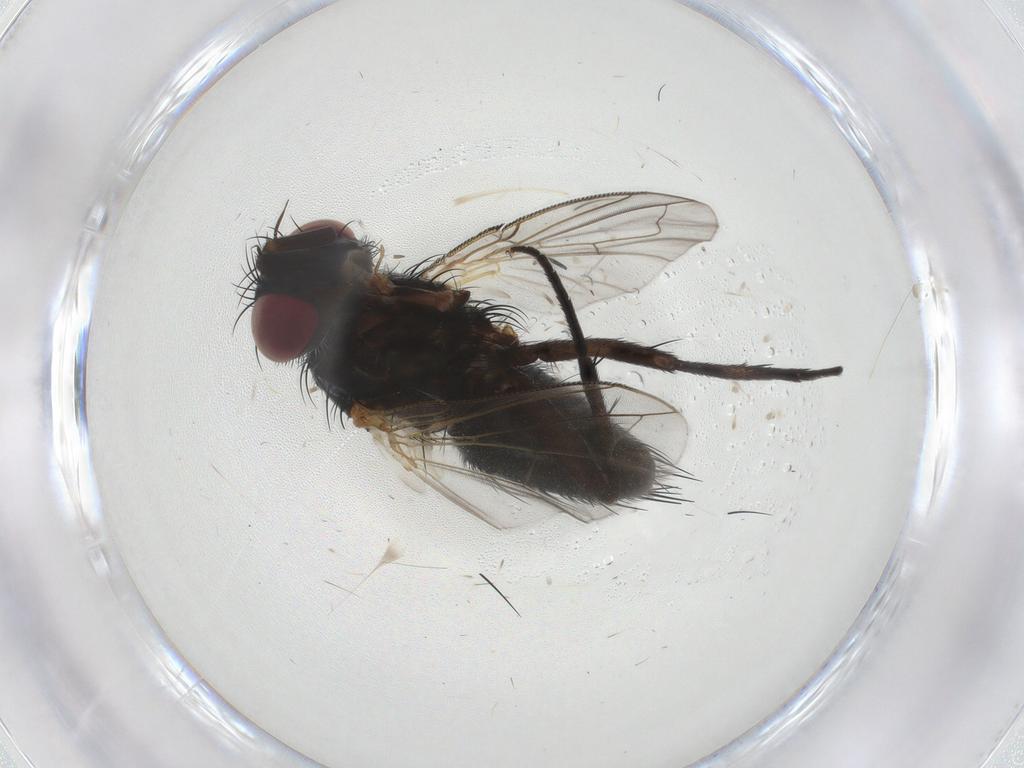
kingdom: Animalia
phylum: Arthropoda
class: Insecta
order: Diptera
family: Tachinidae
